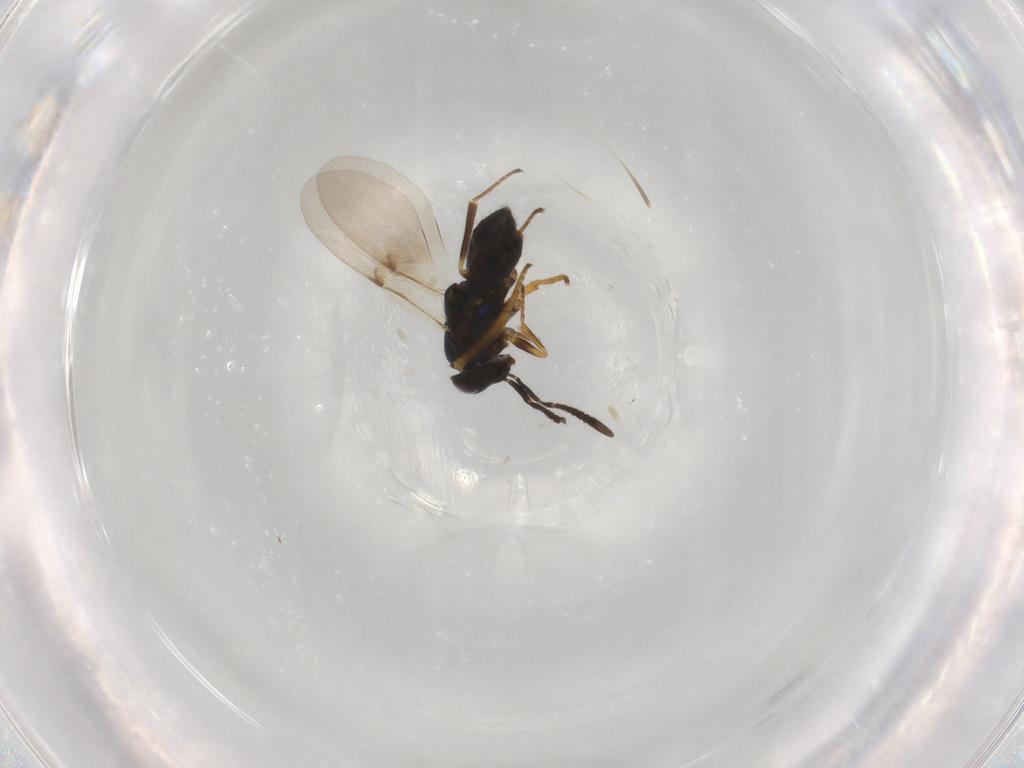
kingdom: Animalia
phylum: Arthropoda
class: Insecta
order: Hymenoptera
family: Encyrtidae
